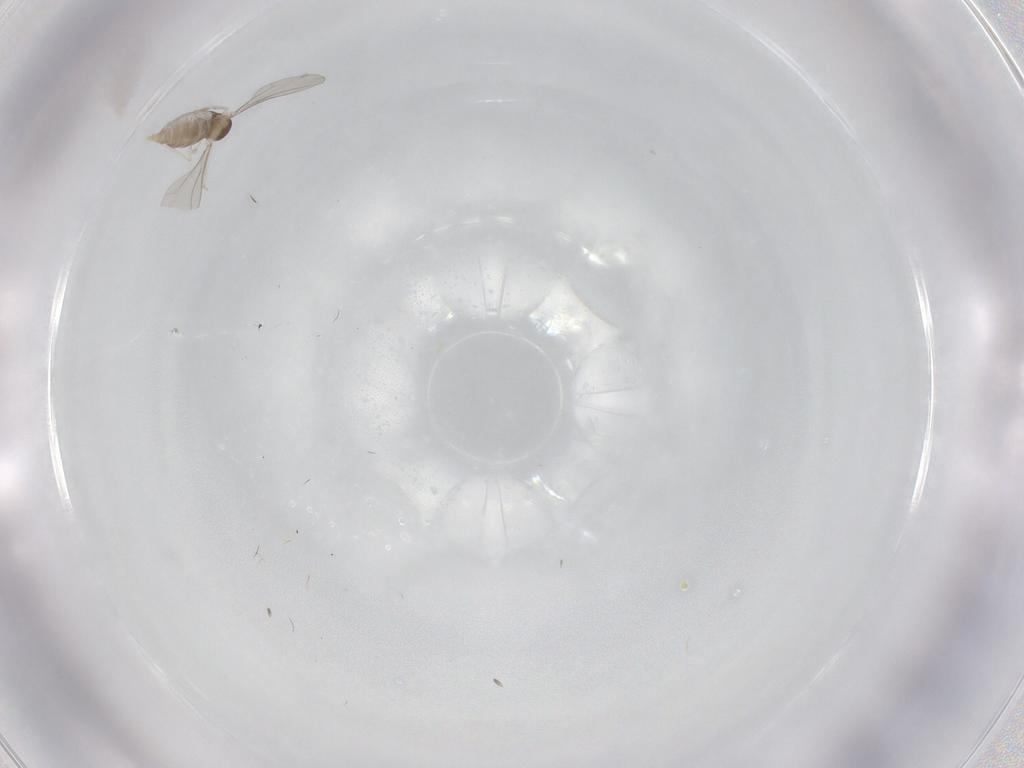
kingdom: Animalia
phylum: Arthropoda
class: Insecta
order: Diptera
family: Cecidomyiidae
